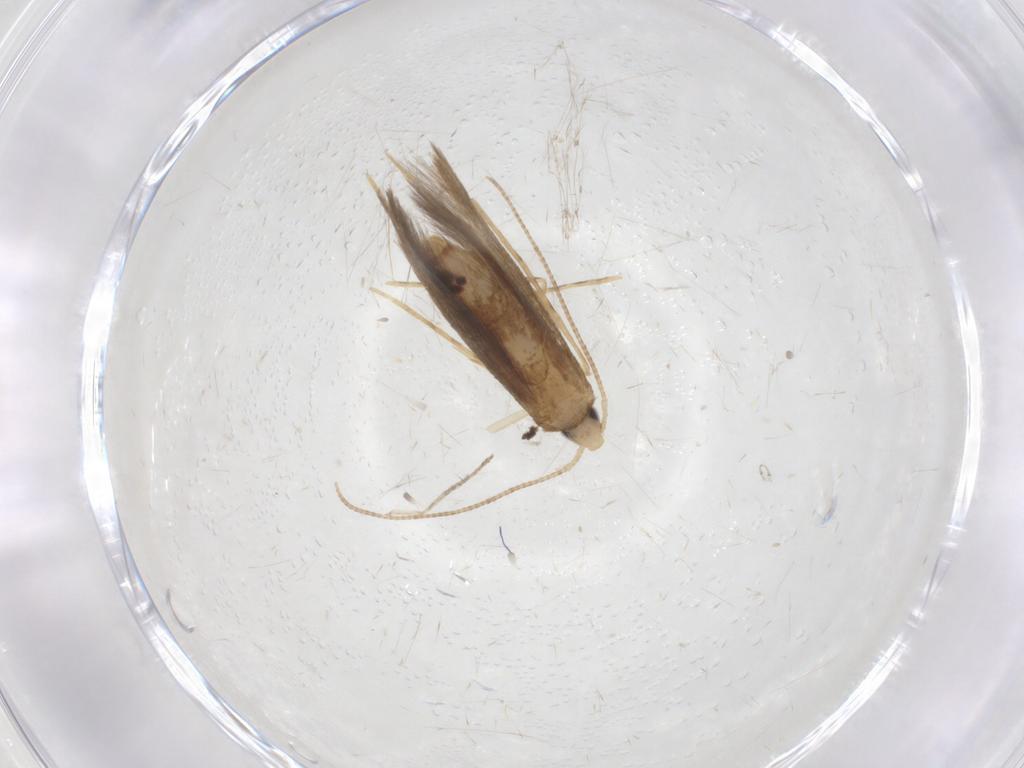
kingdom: Animalia
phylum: Arthropoda
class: Insecta
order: Lepidoptera
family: Psychidae
